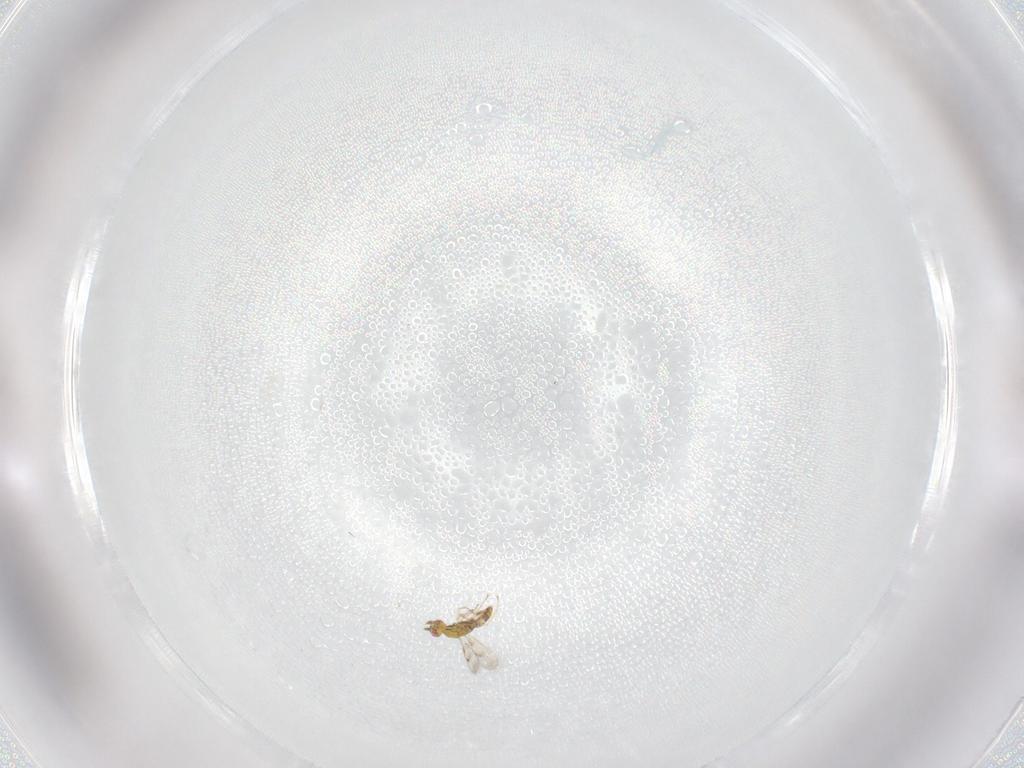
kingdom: Animalia
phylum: Arthropoda
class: Insecta
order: Hymenoptera
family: Eulophidae
